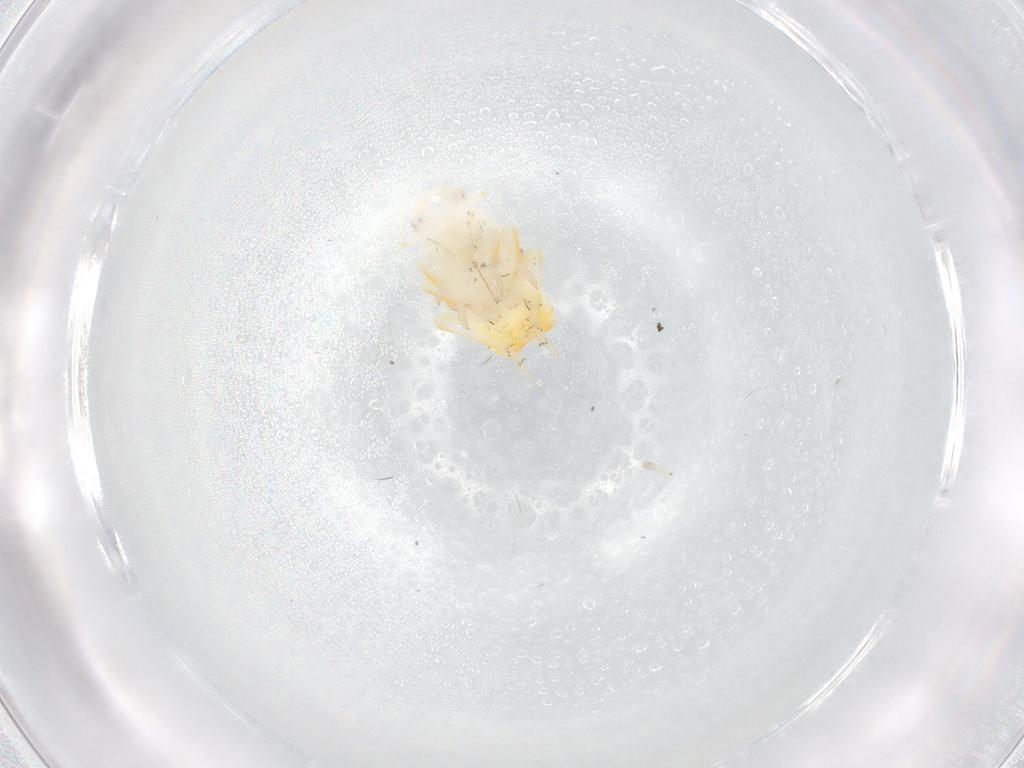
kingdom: Animalia
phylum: Arthropoda
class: Insecta
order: Hemiptera
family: Flatidae
